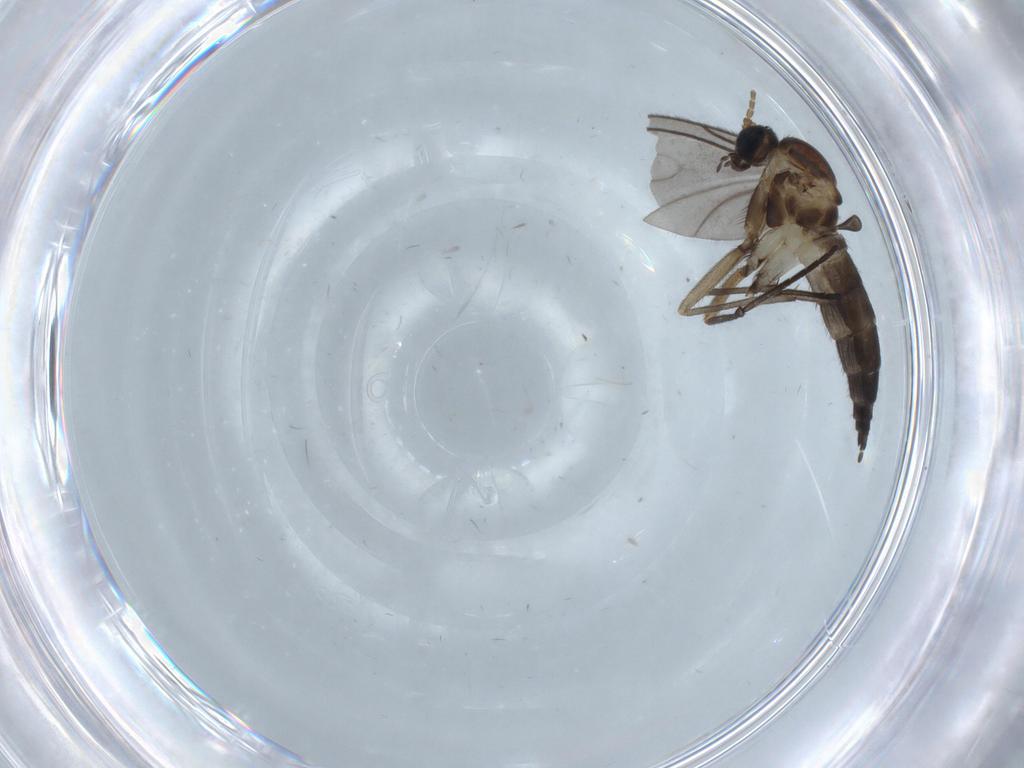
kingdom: Animalia
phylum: Arthropoda
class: Insecta
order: Diptera
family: Sciaridae
